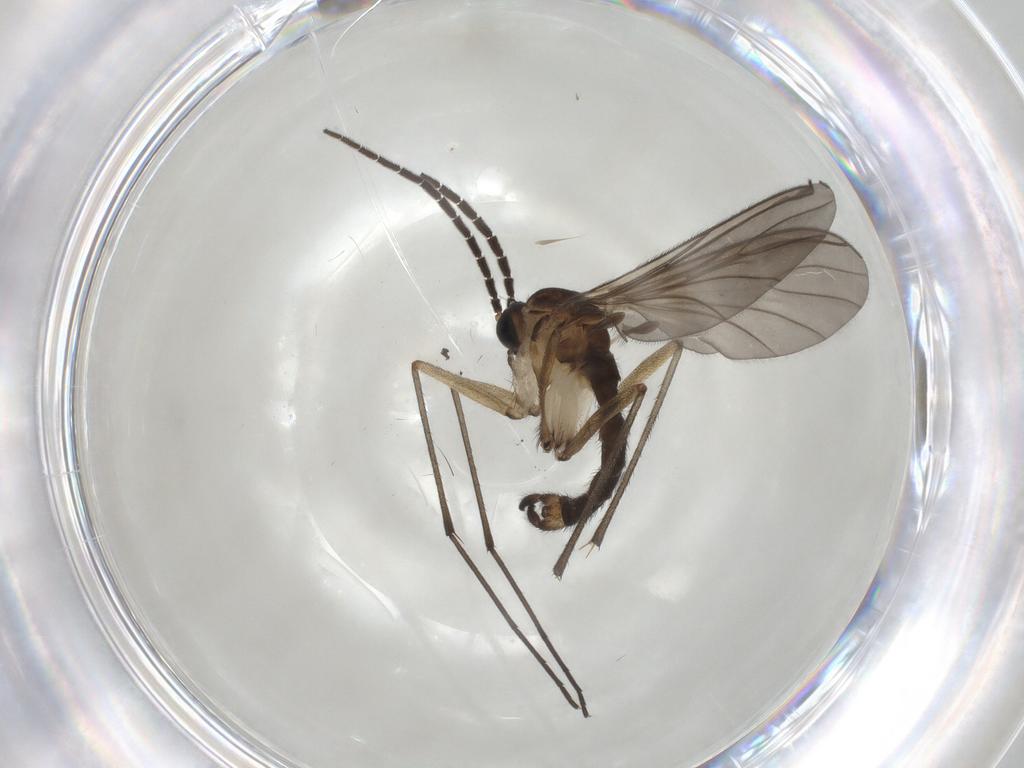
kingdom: Animalia
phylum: Arthropoda
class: Insecta
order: Diptera
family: Sciaridae
